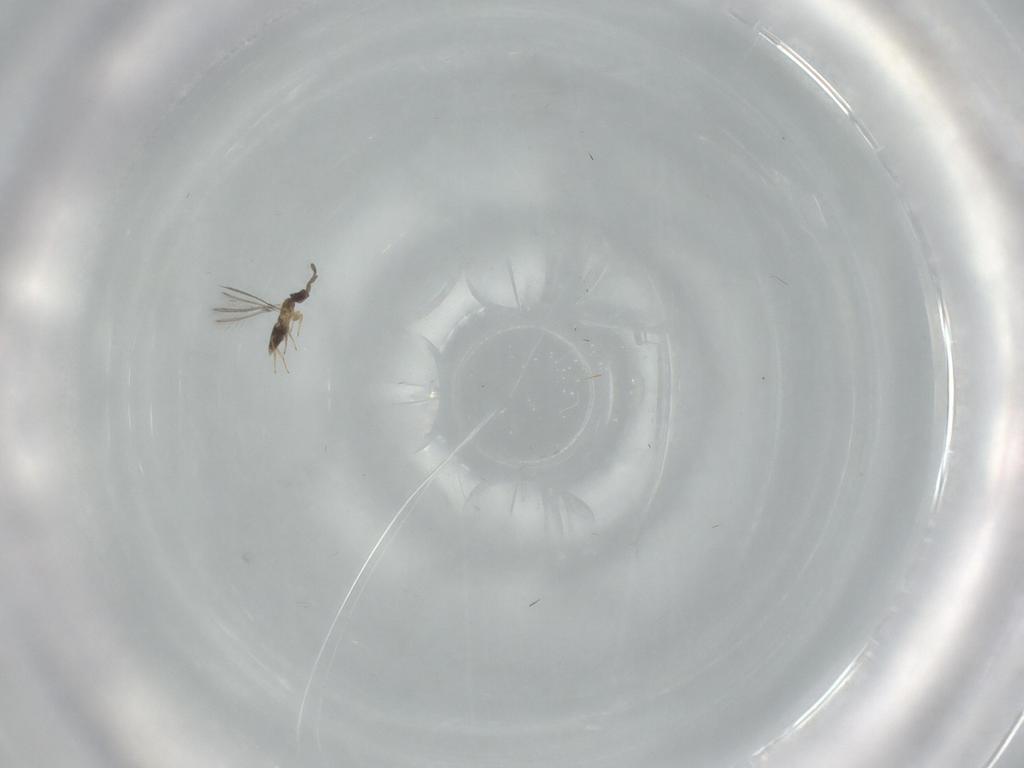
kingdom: Animalia
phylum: Arthropoda
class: Insecta
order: Hymenoptera
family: Mymaridae
